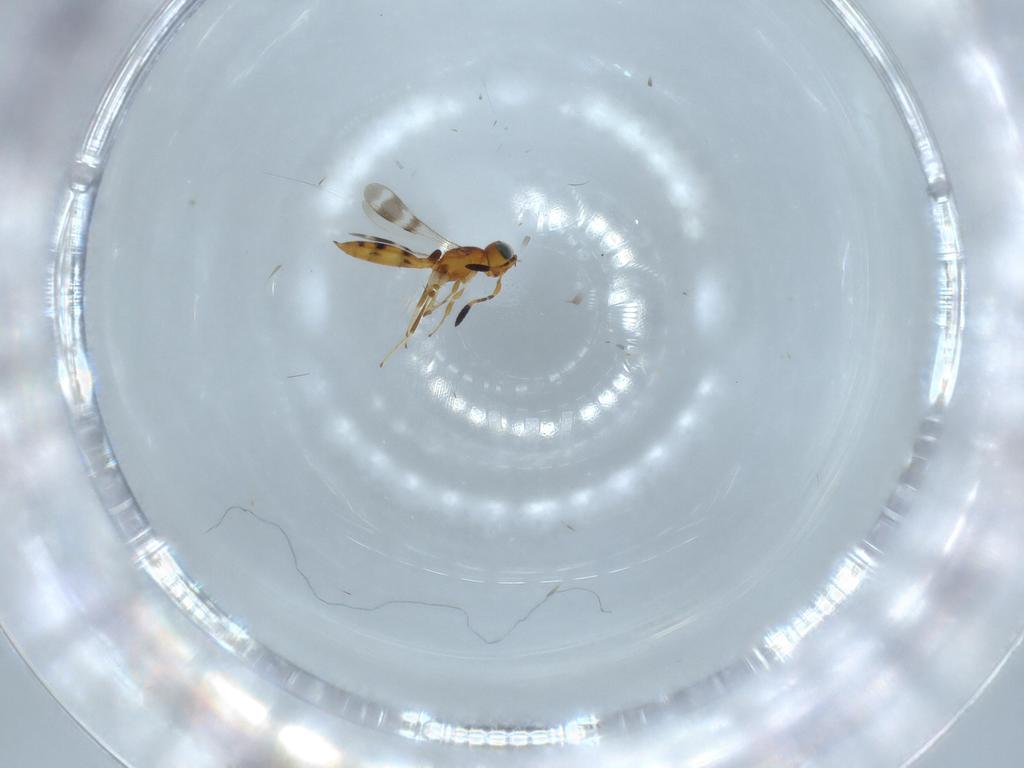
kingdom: Animalia
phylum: Arthropoda
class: Insecta
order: Hymenoptera
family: Scelionidae
